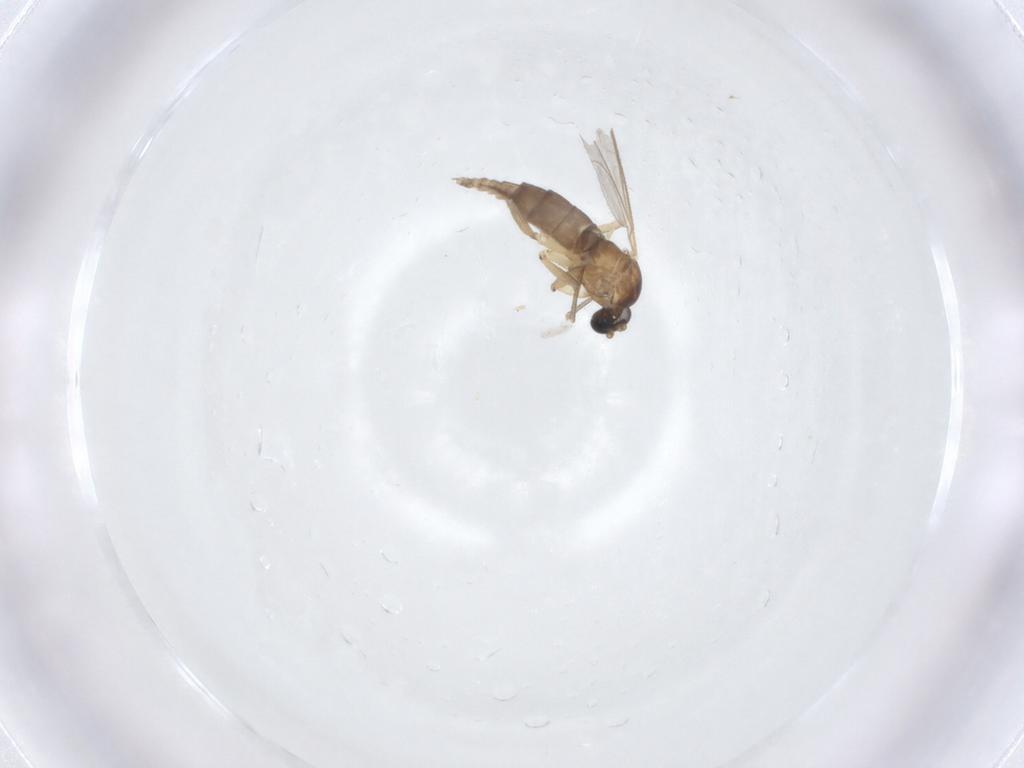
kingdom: Animalia
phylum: Arthropoda
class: Insecta
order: Diptera
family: Sciaridae
